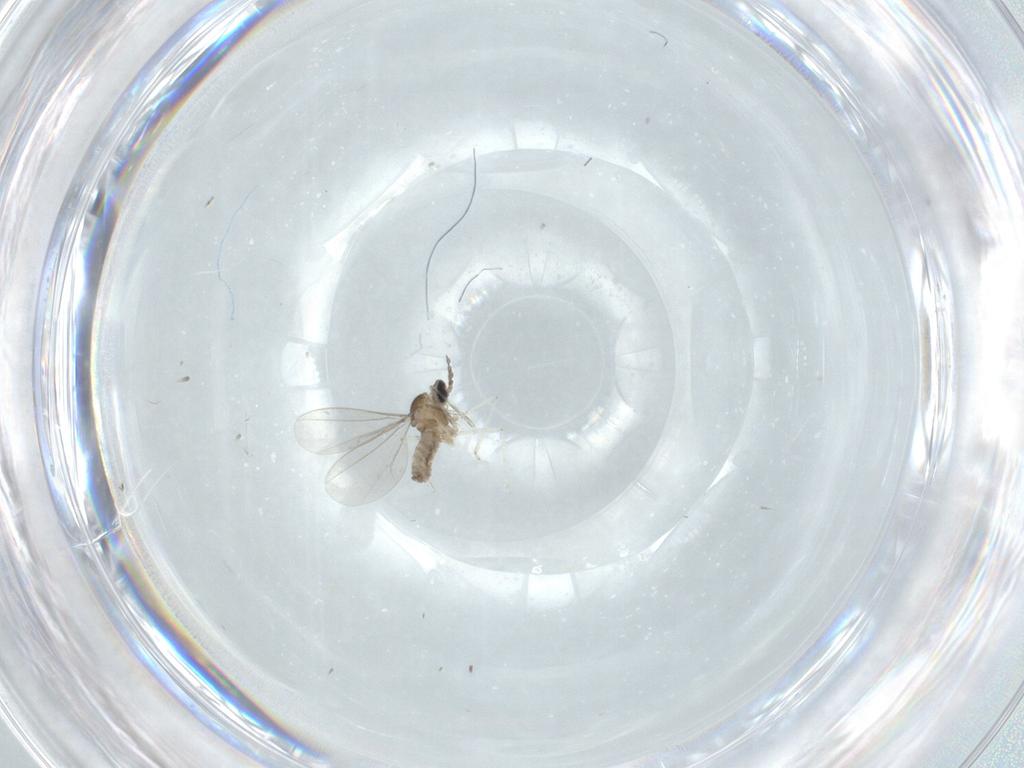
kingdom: Animalia
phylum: Arthropoda
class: Insecta
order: Diptera
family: Cecidomyiidae
